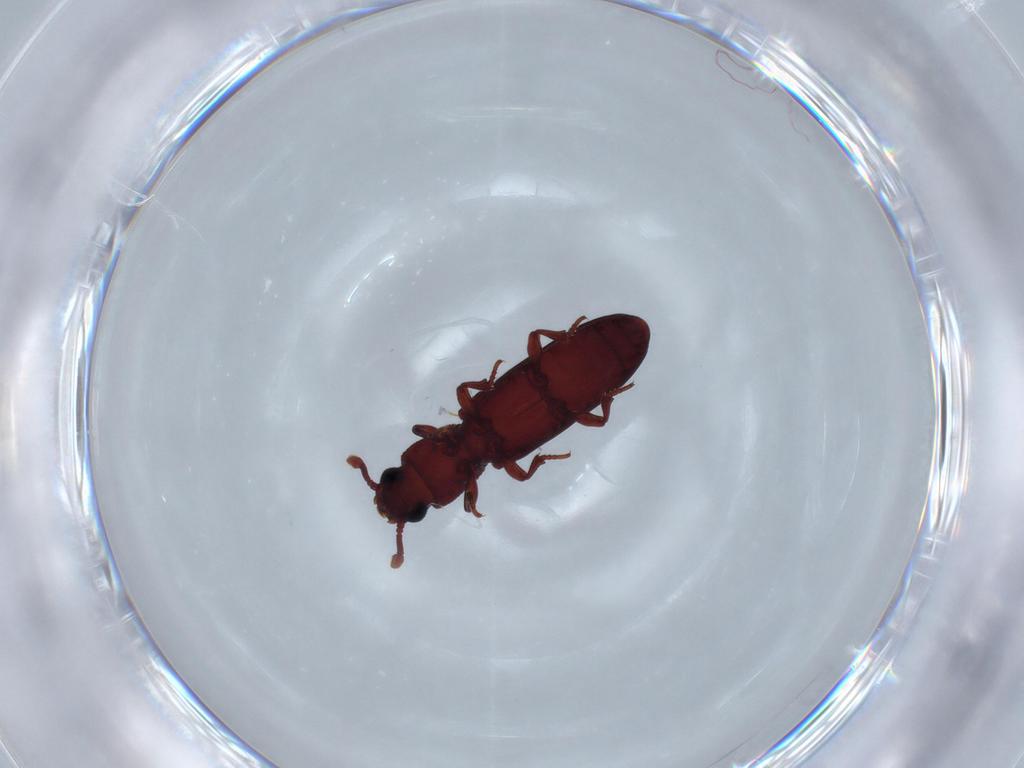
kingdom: Animalia
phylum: Arthropoda
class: Insecta
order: Coleoptera
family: Zopheridae
